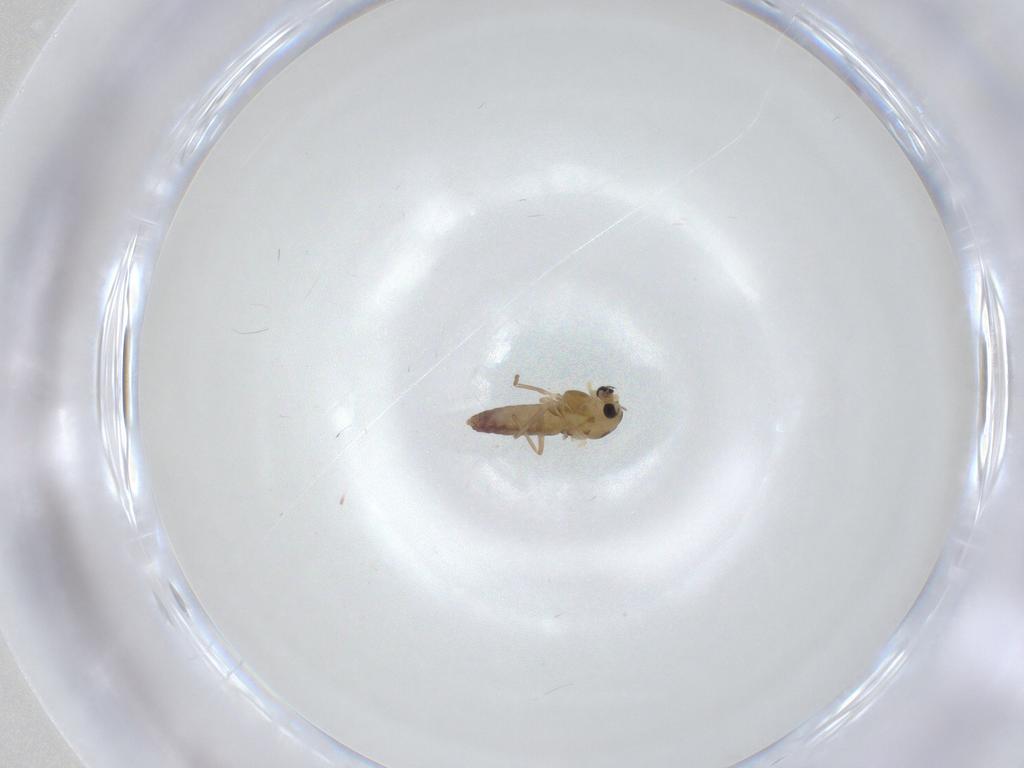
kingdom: Animalia
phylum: Arthropoda
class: Insecta
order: Diptera
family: Chironomidae
